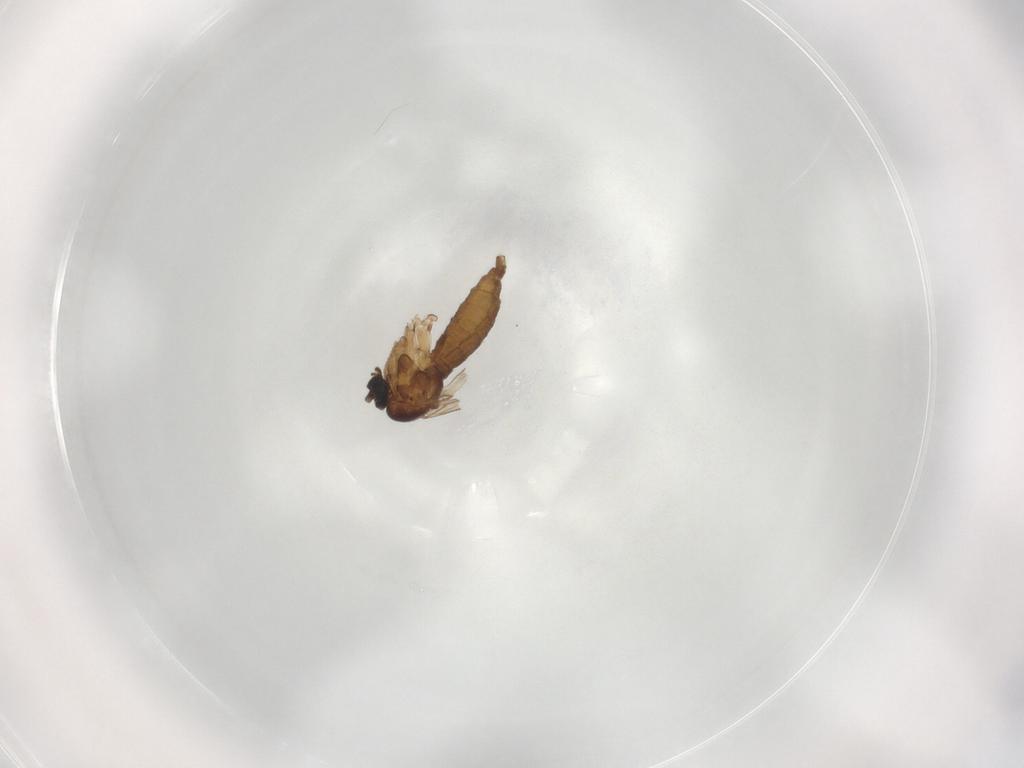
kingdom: Animalia
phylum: Arthropoda
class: Insecta
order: Diptera
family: Sciaridae
